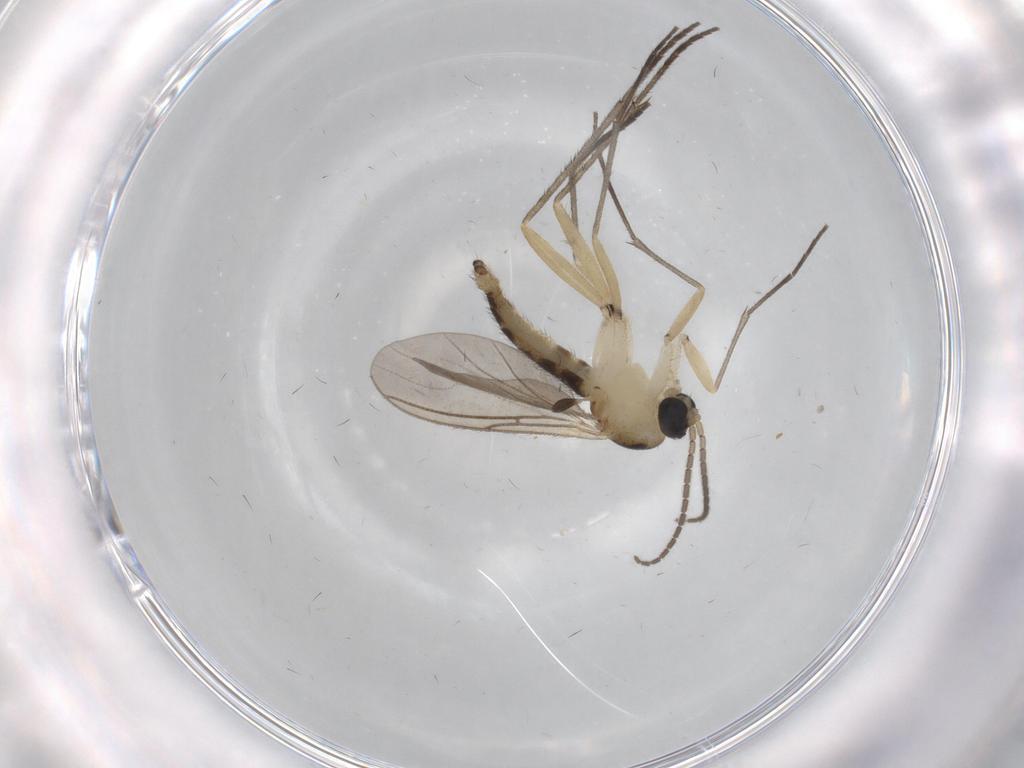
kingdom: Animalia
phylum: Arthropoda
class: Insecta
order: Diptera
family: Sciaridae
